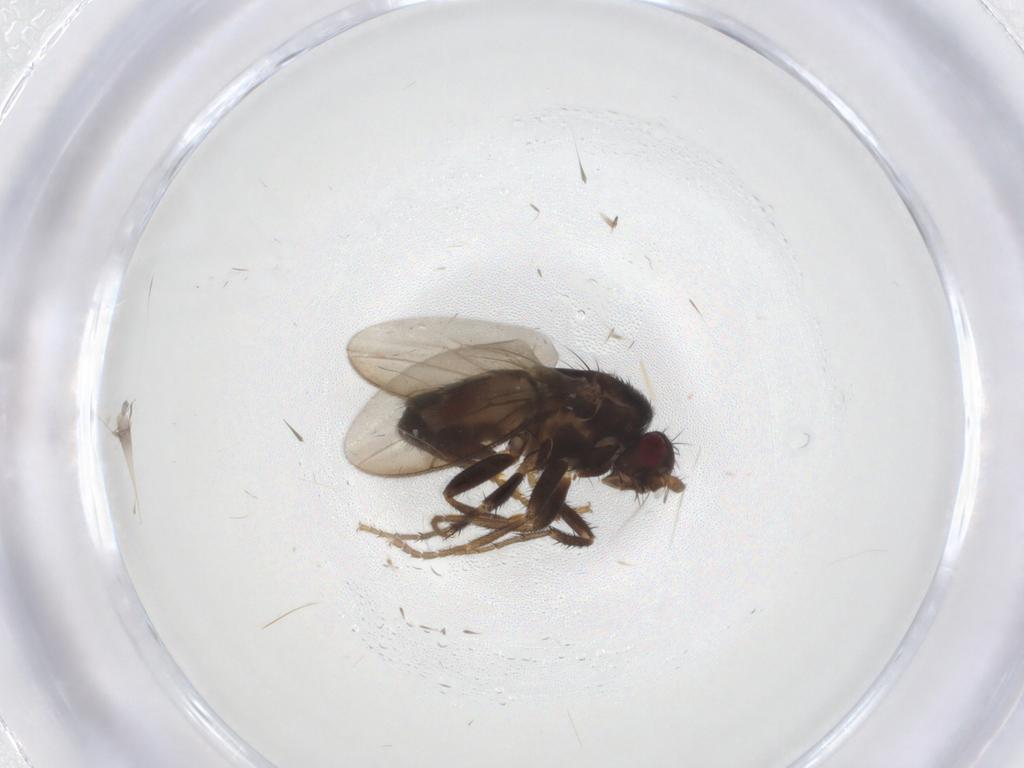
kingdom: Animalia
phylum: Arthropoda
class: Insecta
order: Diptera
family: Sphaeroceridae
